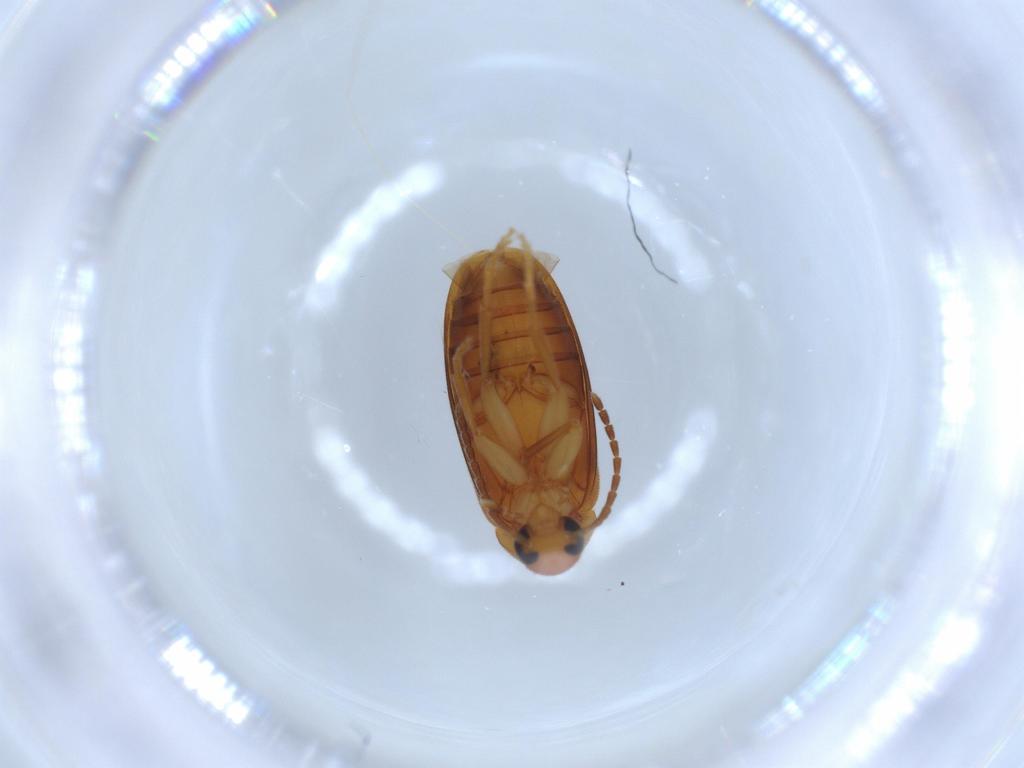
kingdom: Animalia
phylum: Arthropoda
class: Insecta
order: Coleoptera
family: Scraptiidae
